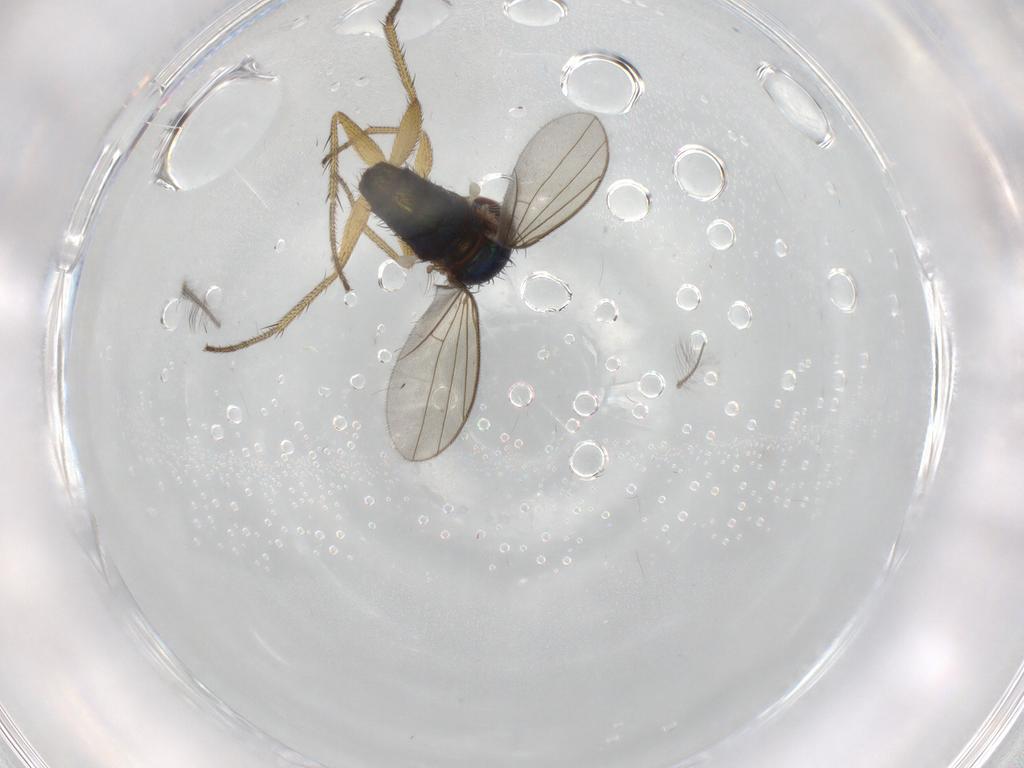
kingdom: Animalia
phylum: Arthropoda
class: Insecta
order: Diptera
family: Chironomidae
